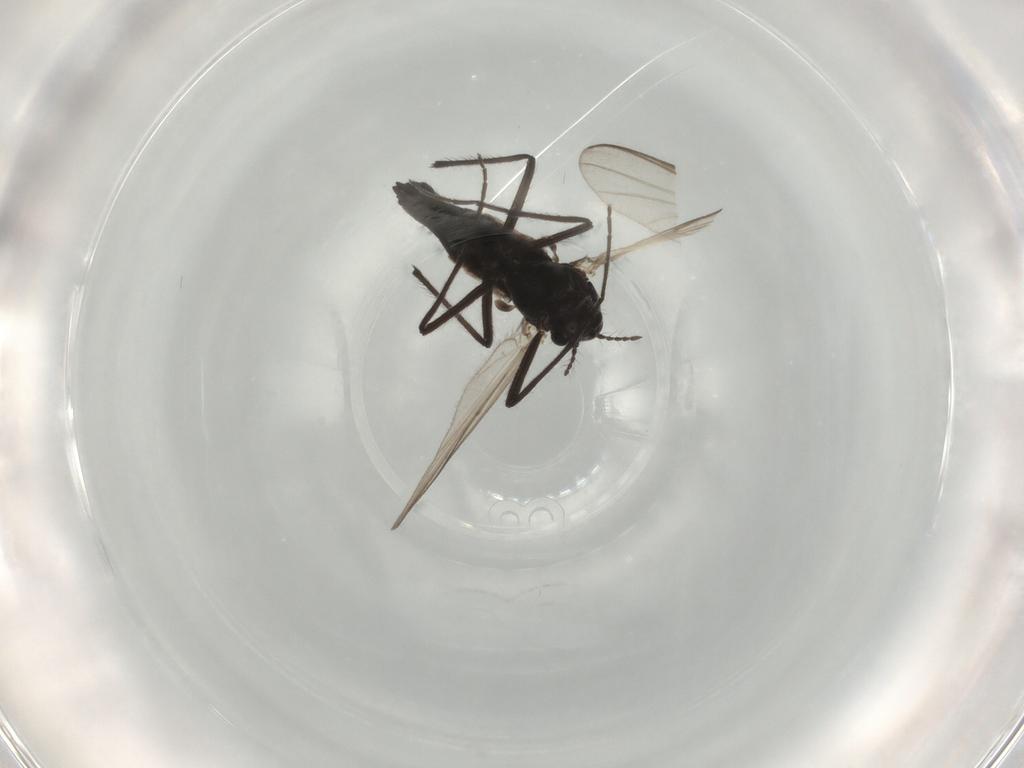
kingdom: Animalia
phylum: Arthropoda
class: Insecta
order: Diptera
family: Chironomidae
